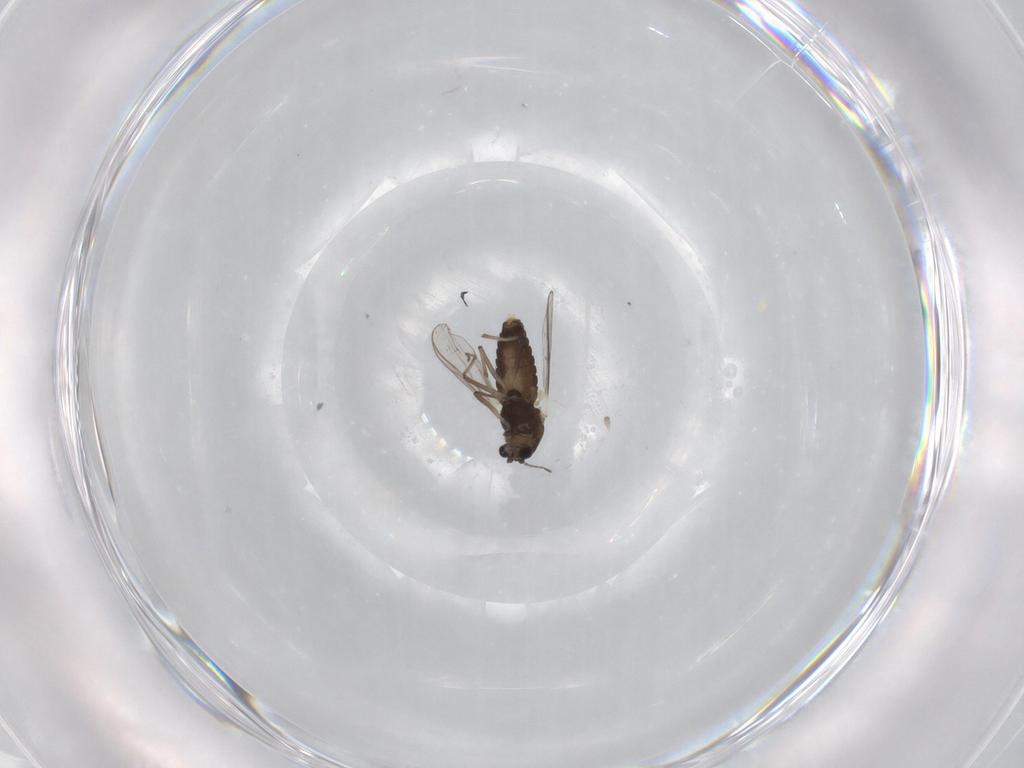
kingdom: Animalia
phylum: Arthropoda
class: Insecta
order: Diptera
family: Chironomidae
